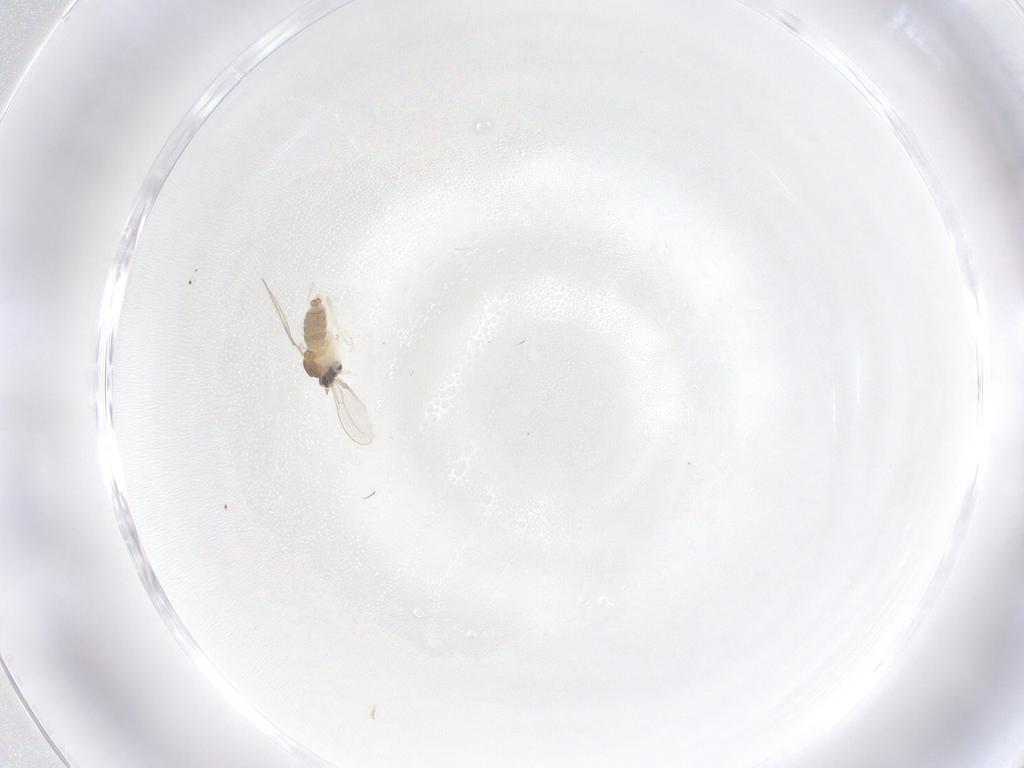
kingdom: Animalia
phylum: Arthropoda
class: Insecta
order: Diptera
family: Cecidomyiidae
